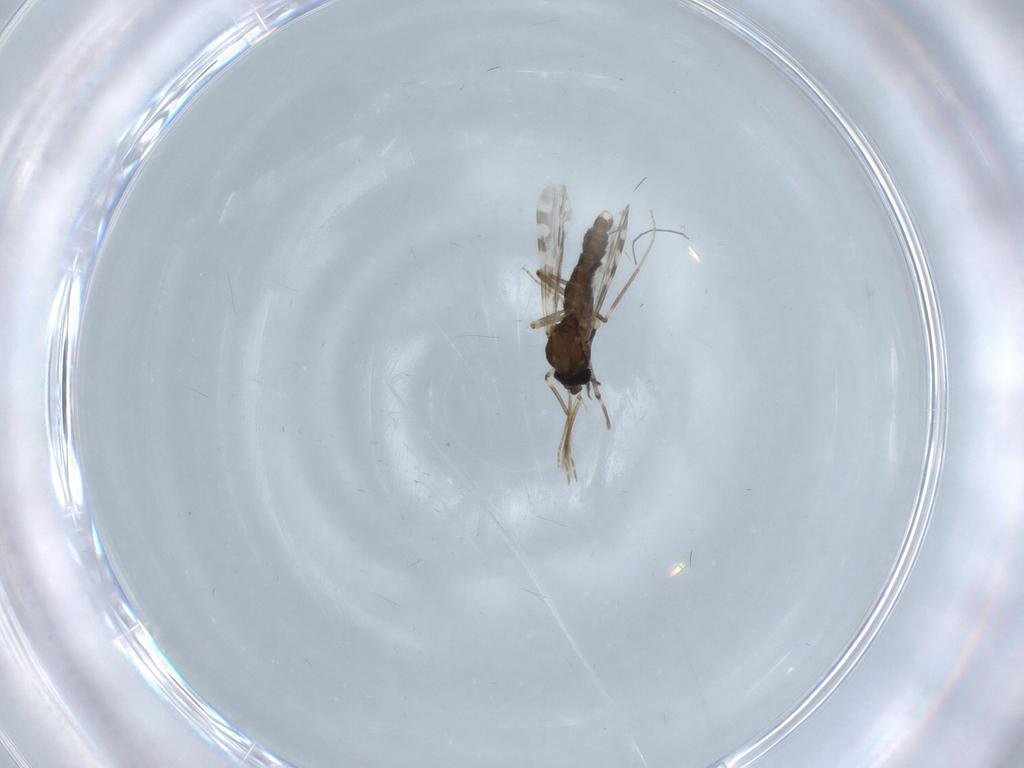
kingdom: Animalia
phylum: Arthropoda
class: Insecta
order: Diptera
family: Ceratopogonidae
